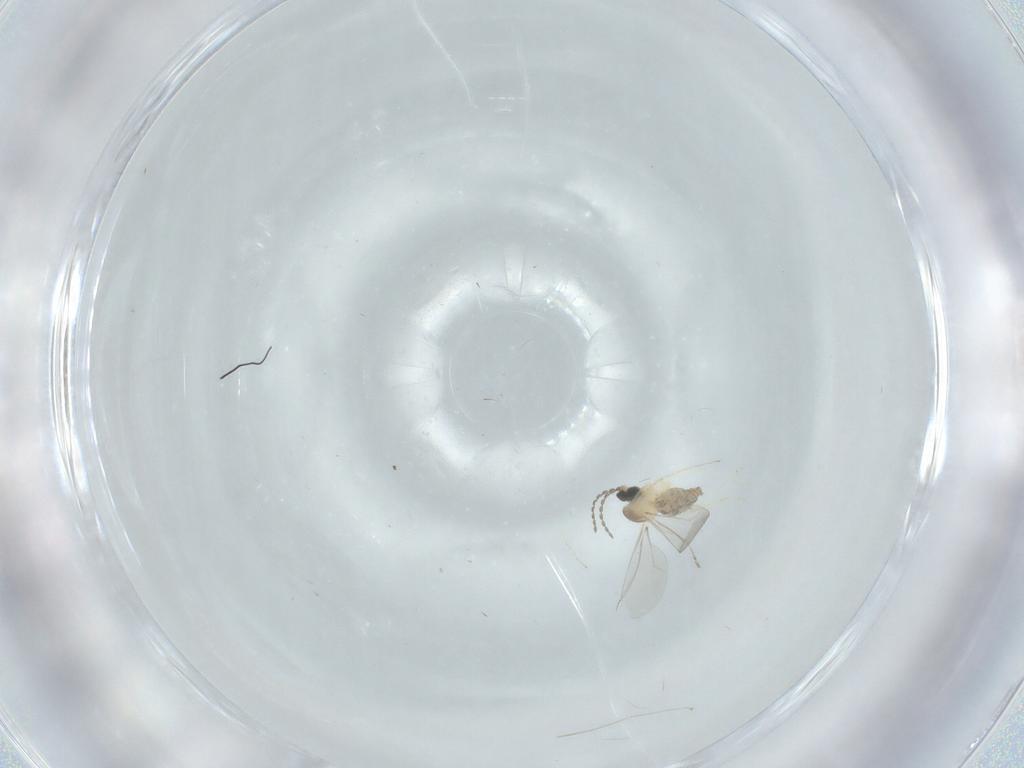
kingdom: Animalia
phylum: Arthropoda
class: Insecta
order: Diptera
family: Cecidomyiidae
